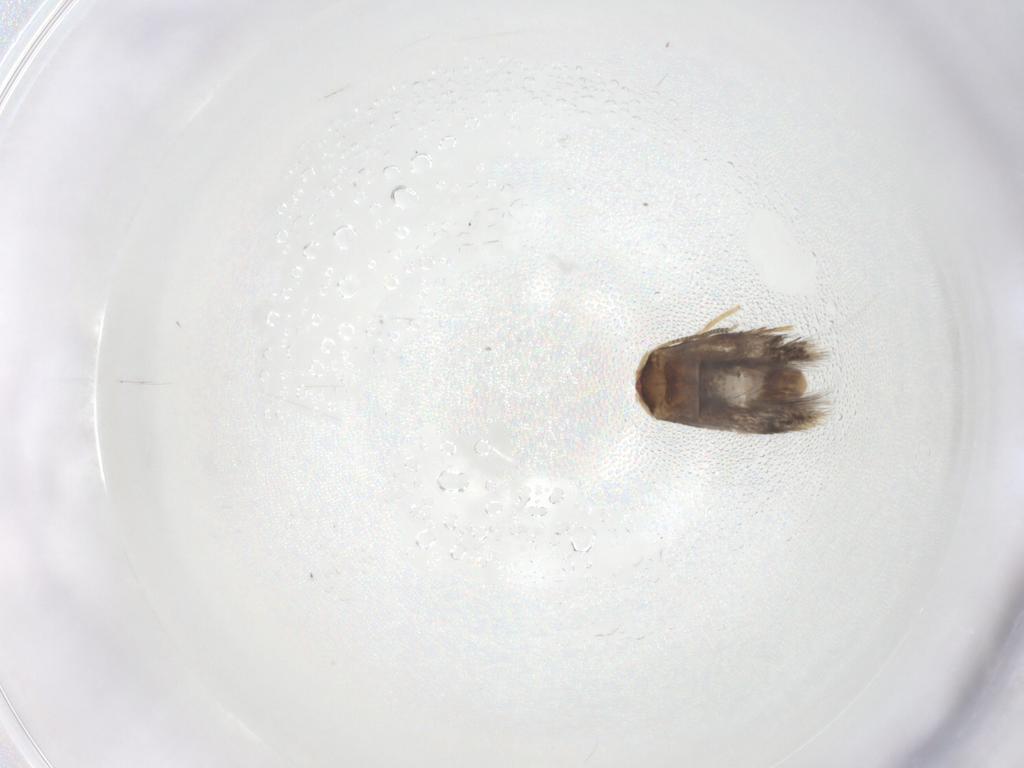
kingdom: Animalia
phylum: Arthropoda
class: Insecta
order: Lepidoptera
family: Nepticulidae
